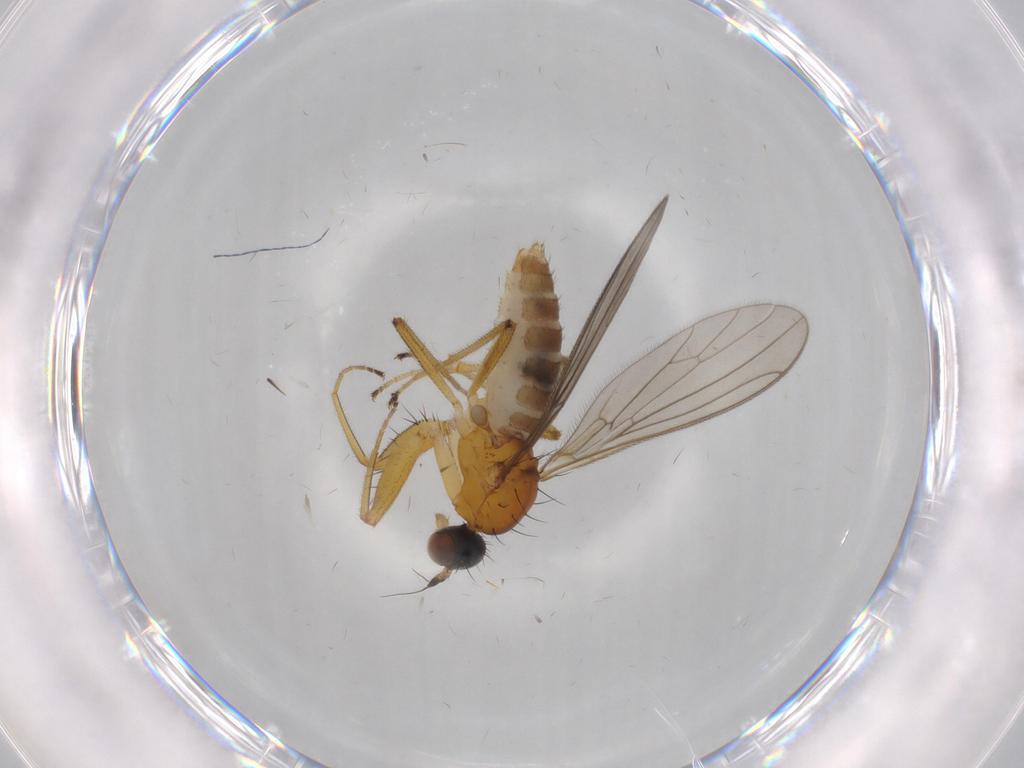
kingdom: Animalia
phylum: Arthropoda
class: Insecta
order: Diptera
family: Empididae
